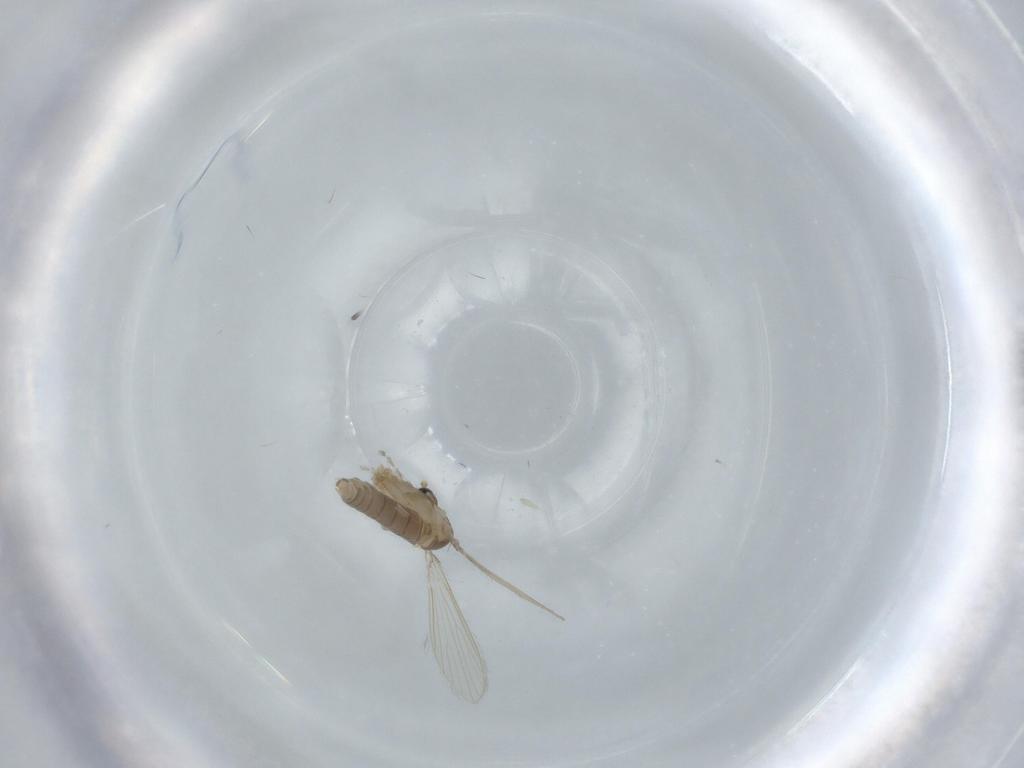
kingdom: Animalia
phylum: Arthropoda
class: Insecta
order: Diptera
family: Psychodidae
